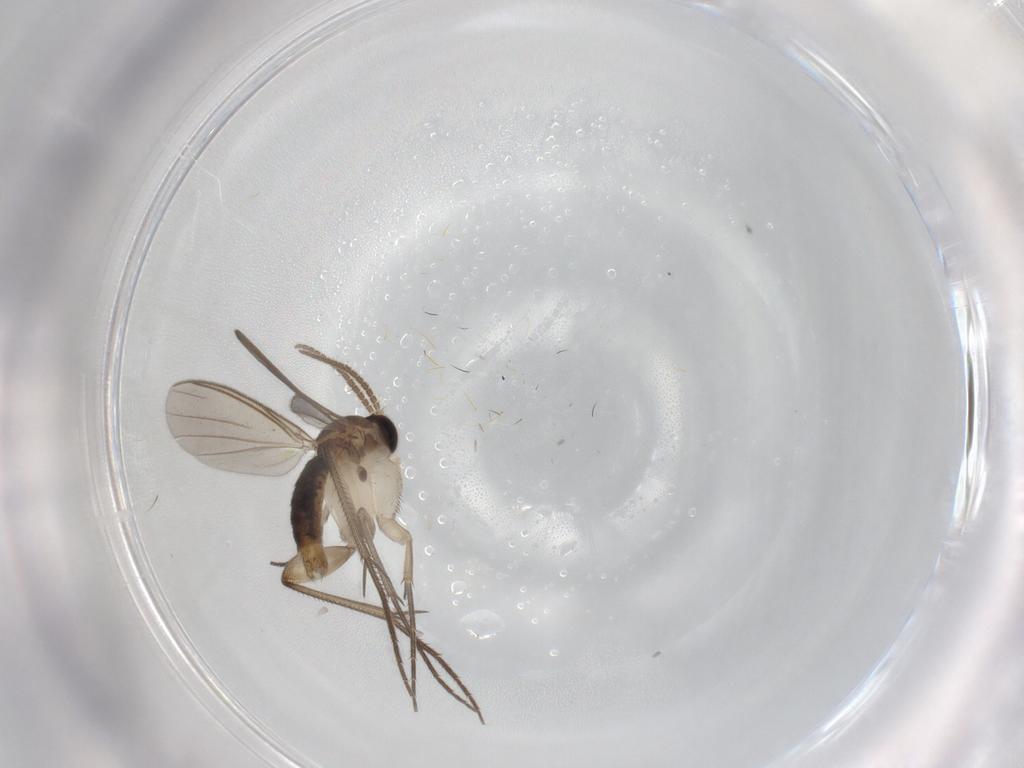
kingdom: Animalia
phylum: Arthropoda
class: Insecta
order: Diptera
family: Mycetophilidae
